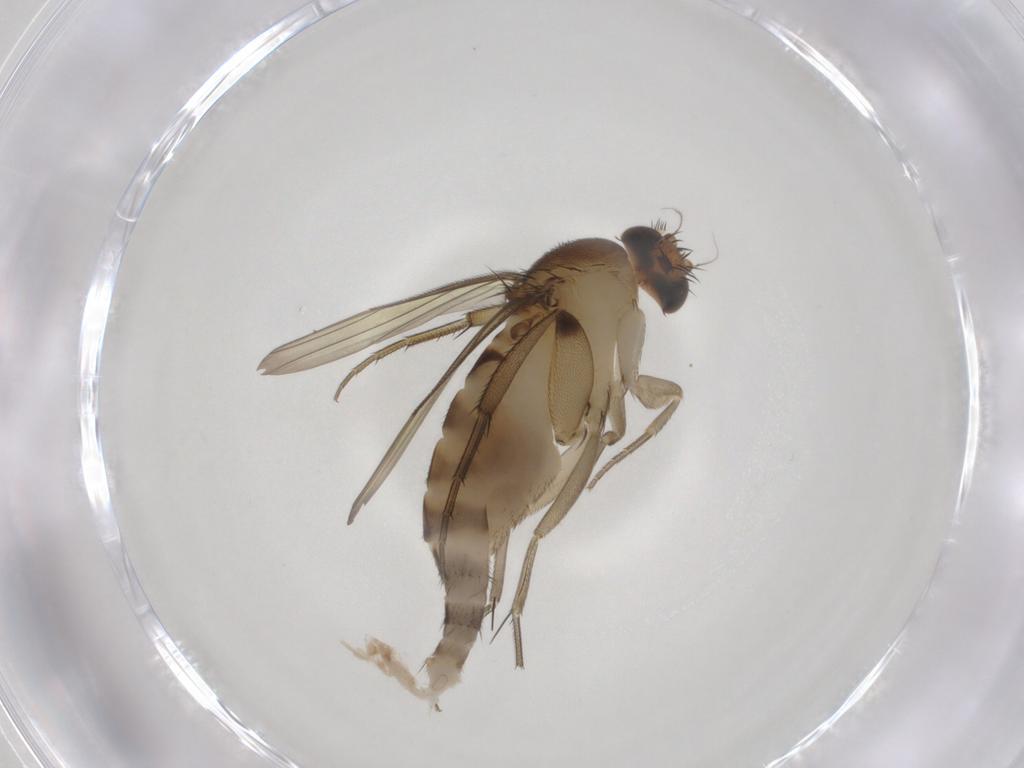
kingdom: Animalia
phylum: Arthropoda
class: Insecta
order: Diptera
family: Phoridae
